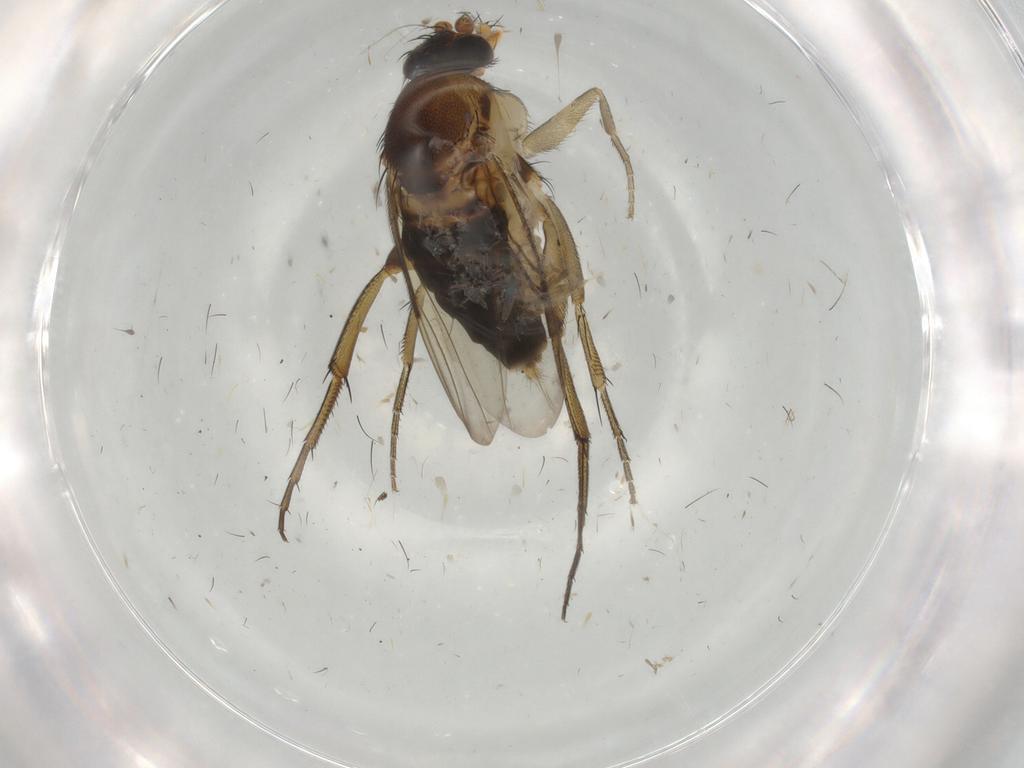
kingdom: Animalia
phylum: Arthropoda
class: Insecta
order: Diptera
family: Phoridae
